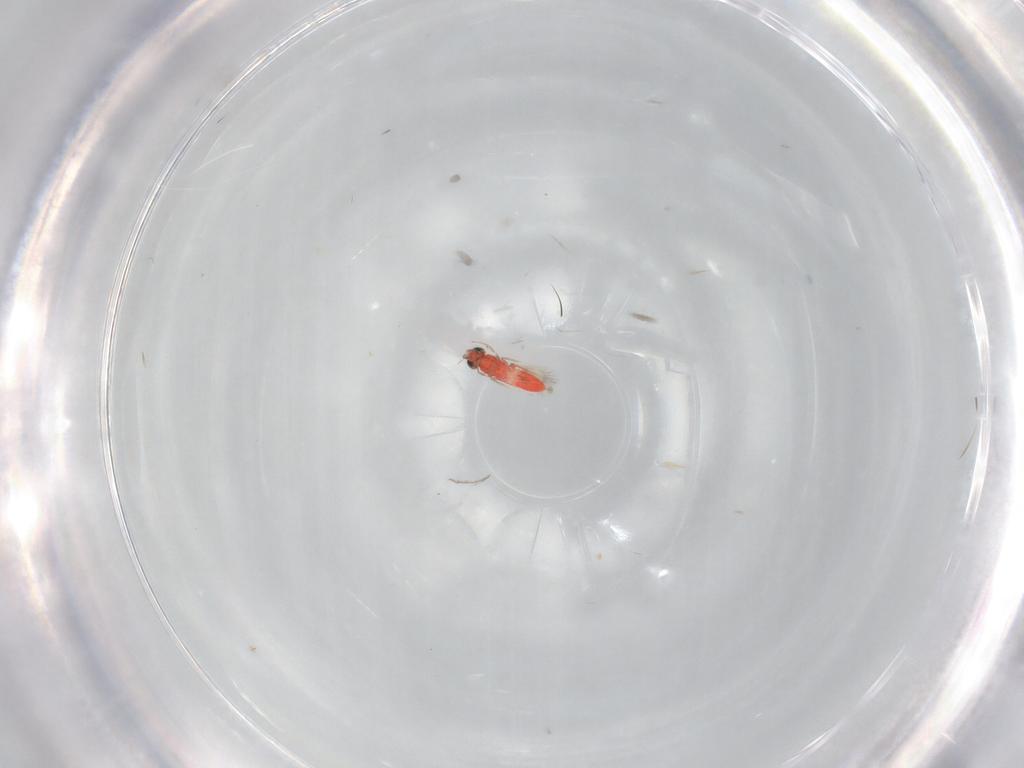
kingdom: Animalia
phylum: Arthropoda
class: Insecta
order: Hymenoptera
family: Trichogrammatidae
